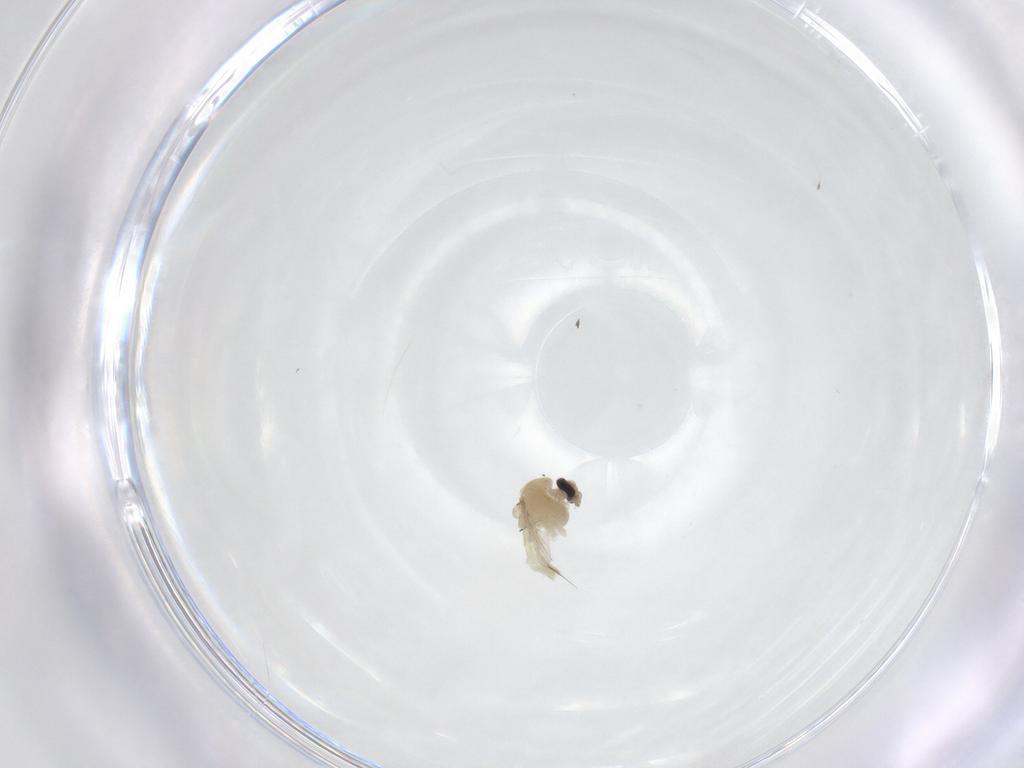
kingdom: Animalia
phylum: Arthropoda
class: Insecta
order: Diptera
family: Chironomidae
